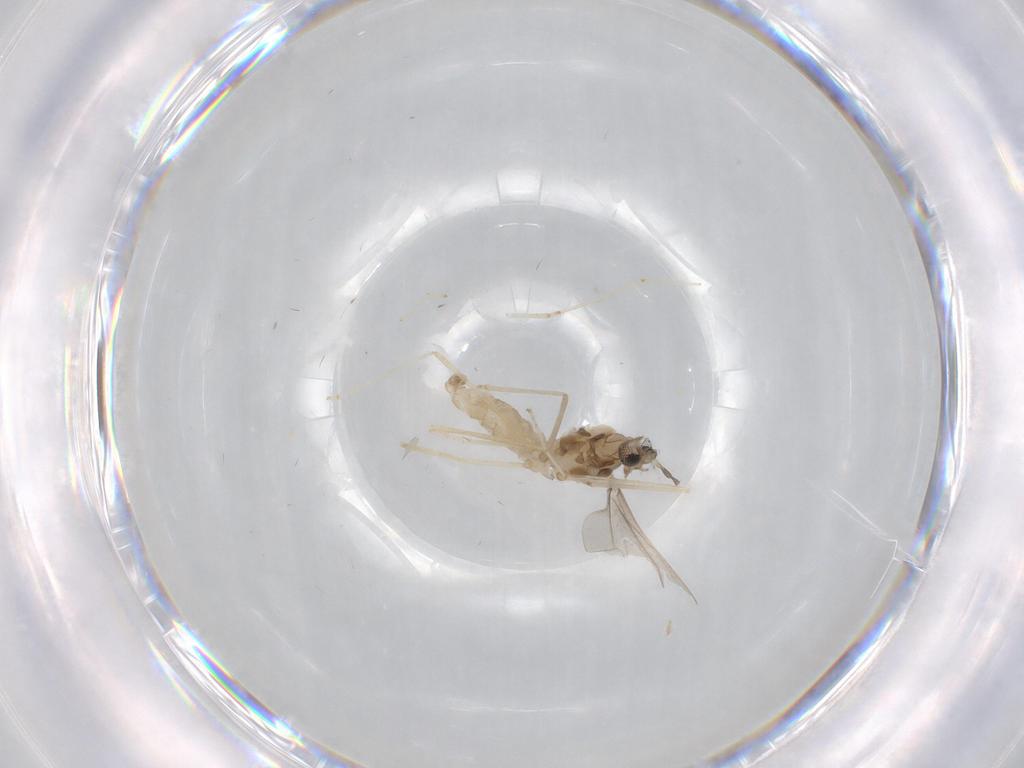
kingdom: Animalia
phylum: Arthropoda
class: Insecta
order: Diptera
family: Cecidomyiidae
